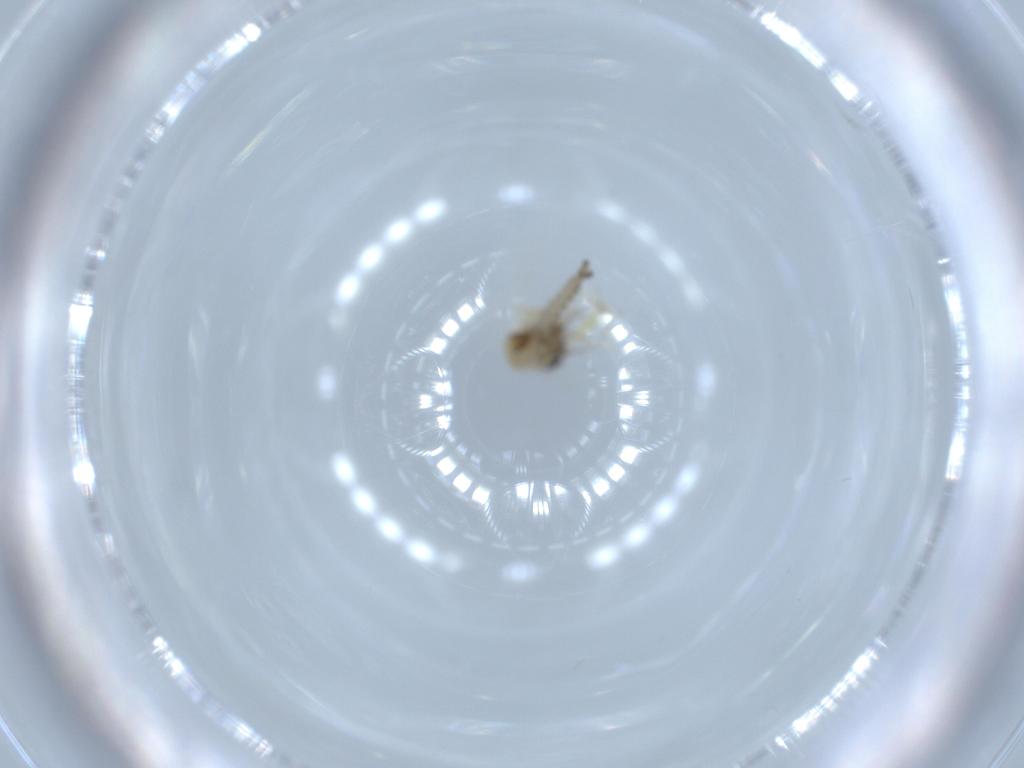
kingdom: Animalia
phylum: Arthropoda
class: Insecta
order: Diptera
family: Ceratopogonidae
